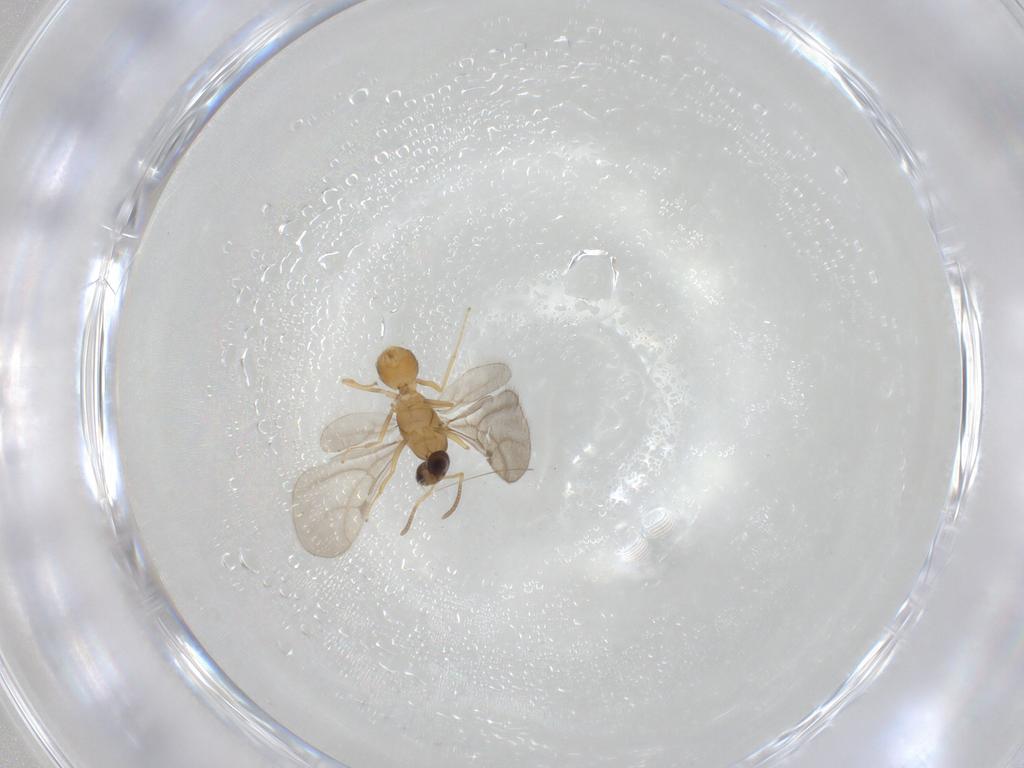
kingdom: Animalia
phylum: Arthropoda
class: Insecta
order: Hymenoptera
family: Formicidae
